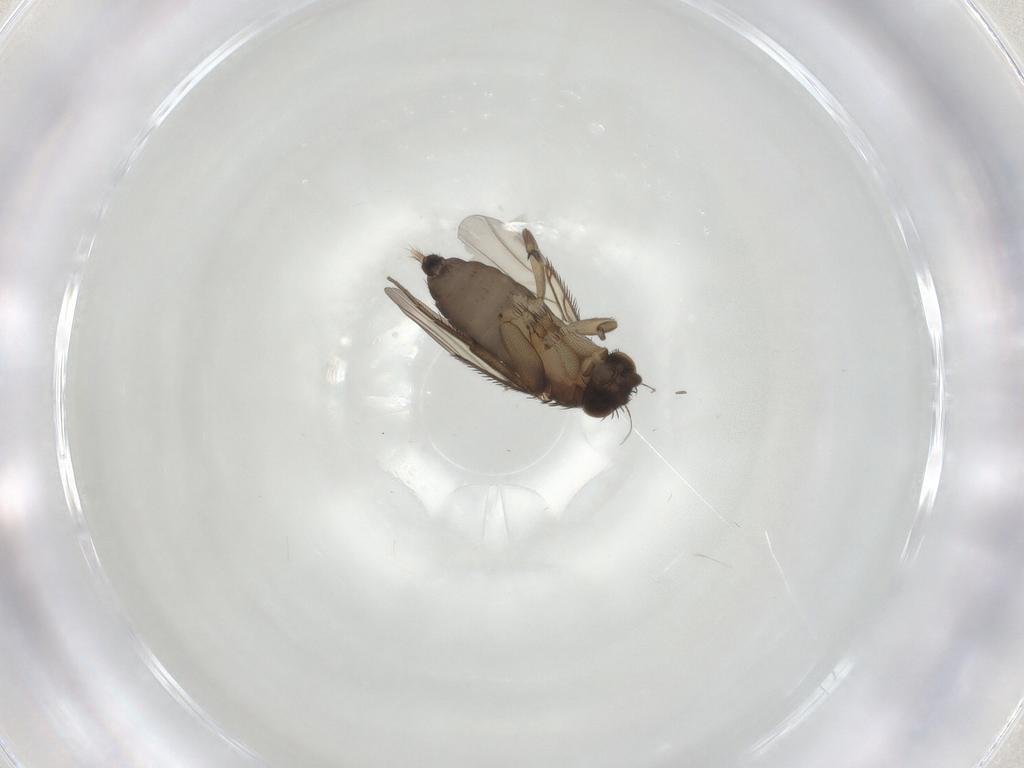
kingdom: Animalia
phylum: Arthropoda
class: Insecta
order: Diptera
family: Phoridae
